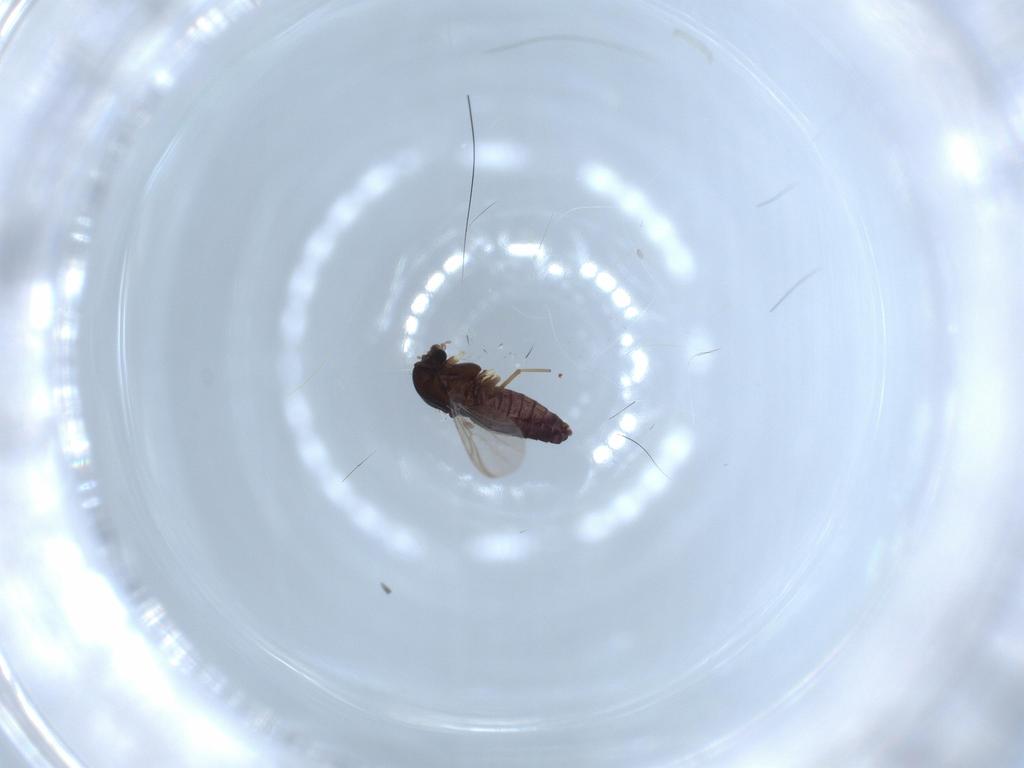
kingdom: Animalia
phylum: Arthropoda
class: Insecta
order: Diptera
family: Chironomidae
